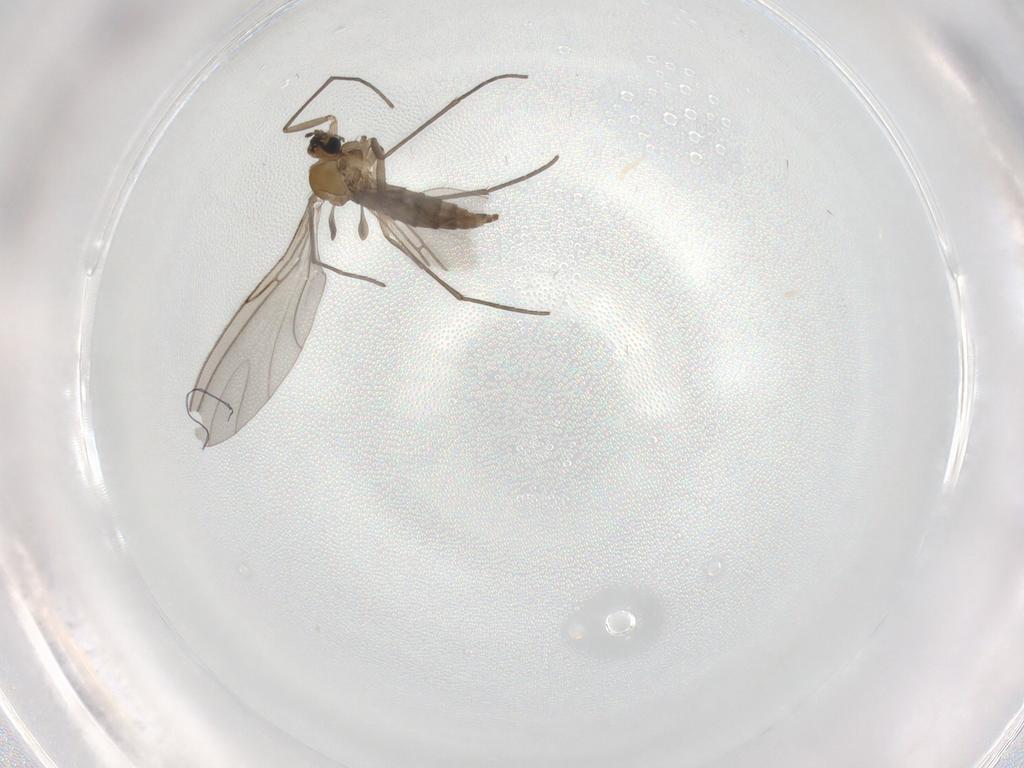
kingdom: Animalia
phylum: Arthropoda
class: Insecta
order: Diptera
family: Sciaridae
